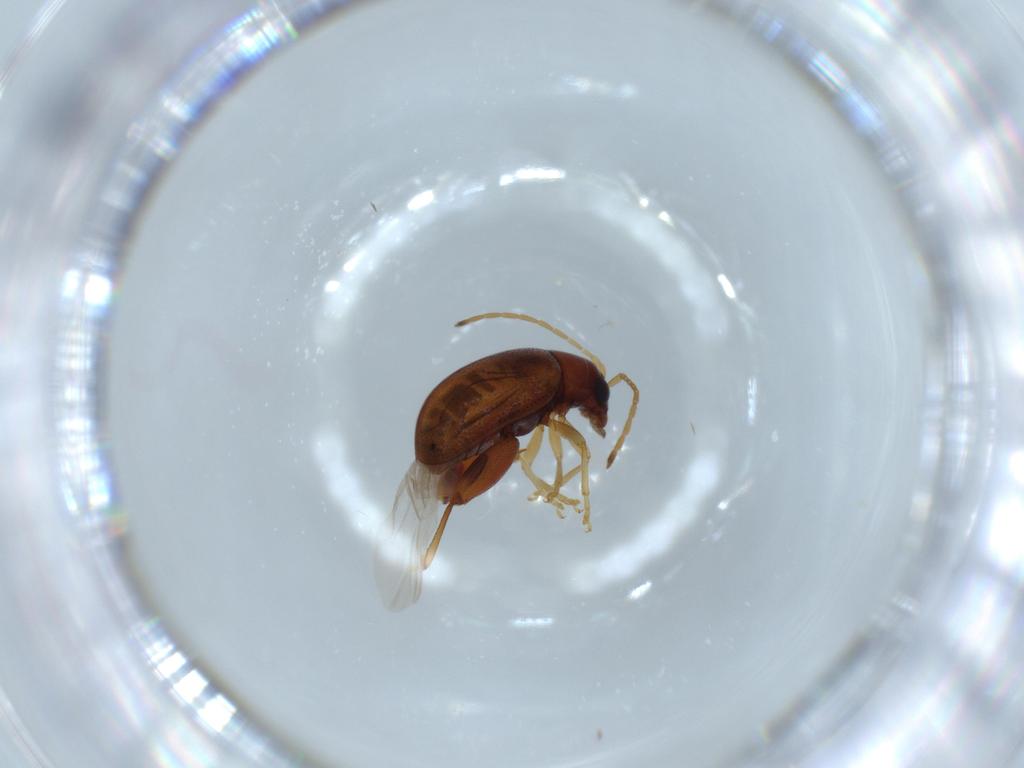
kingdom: Animalia
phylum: Arthropoda
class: Insecta
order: Coleoptera
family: Chrysomelidae
